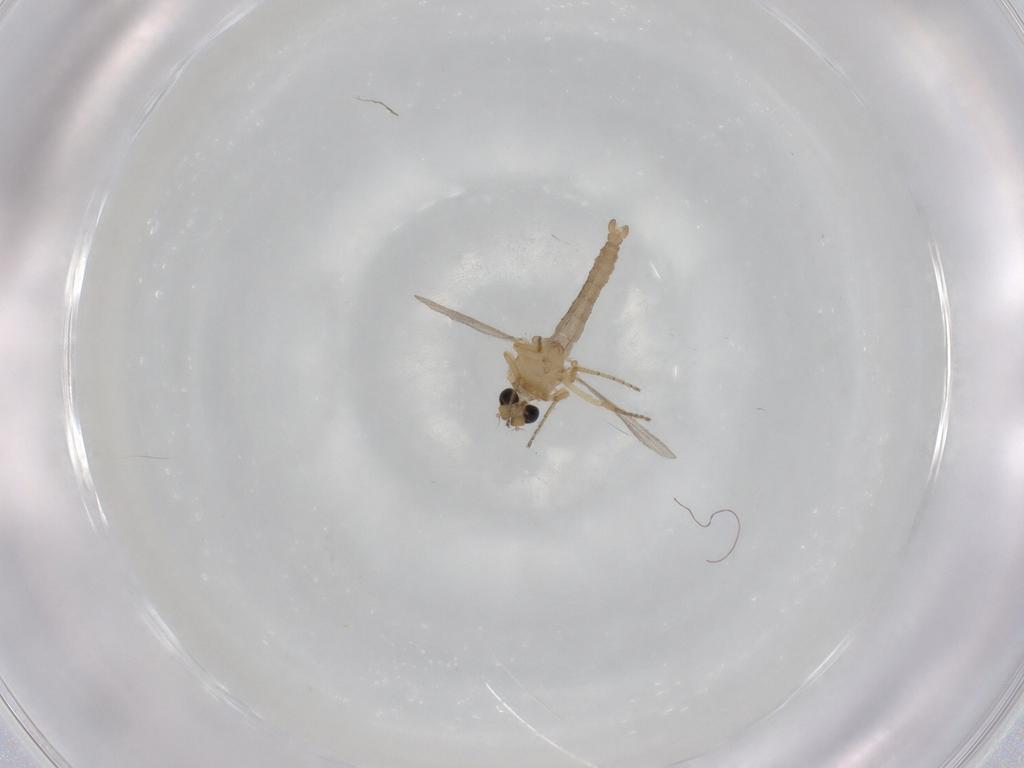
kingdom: Animalia
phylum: Arthropoda
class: Insecta
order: Diptera
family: Ceratopogonidae
